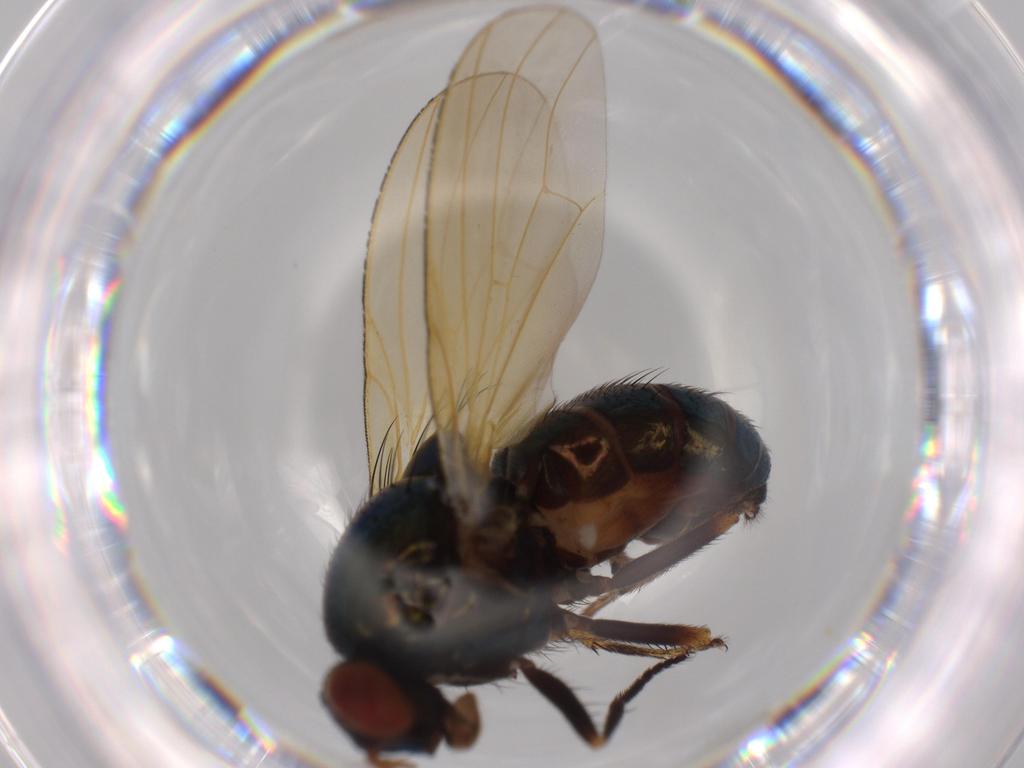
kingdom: Animalia
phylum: Arthropoda
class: Insecta
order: Diptera
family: Lauxaniidae
